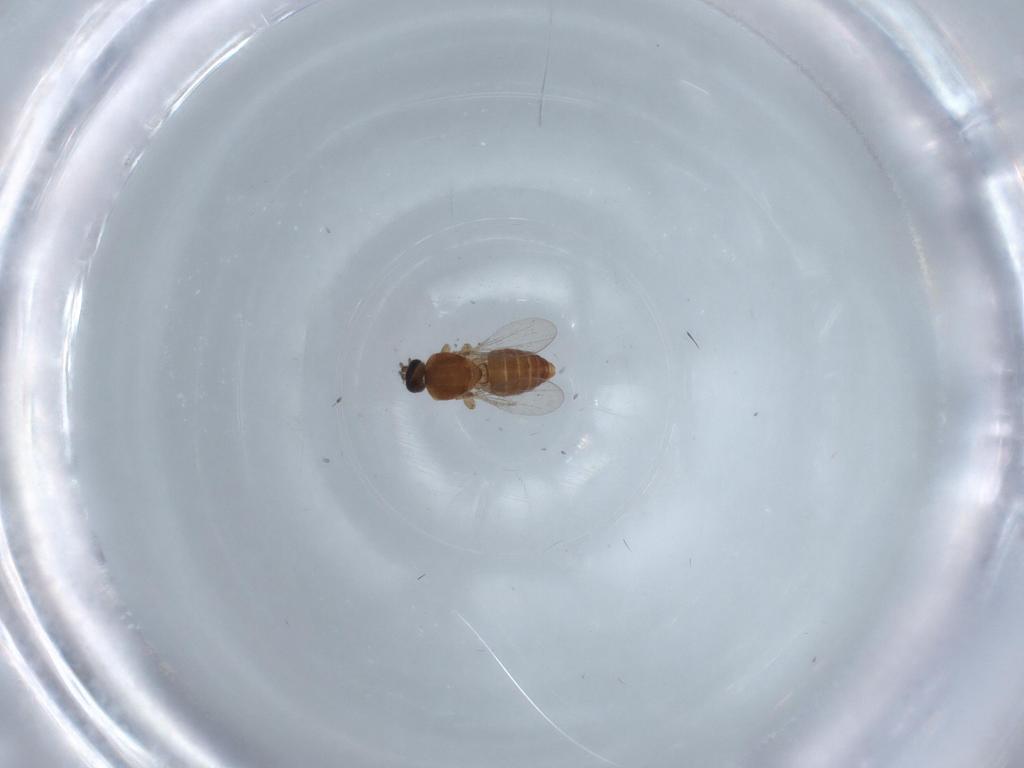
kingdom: Animalia
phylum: Arthropoda
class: Insecta
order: Diptera
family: Ceratopogonidae
